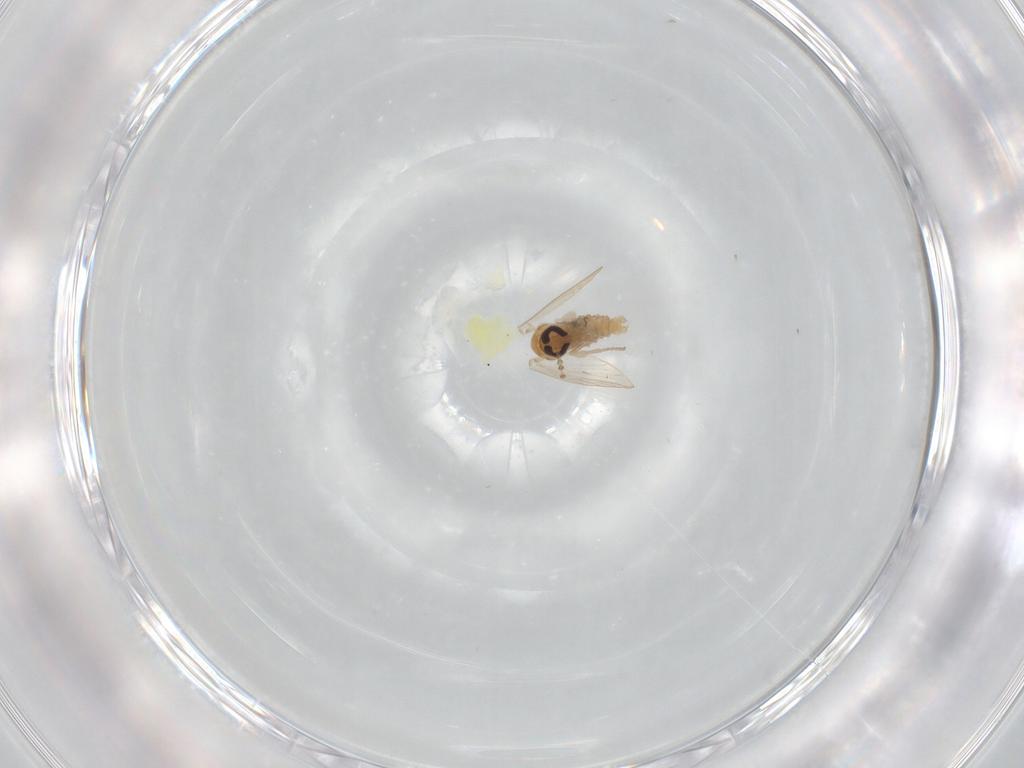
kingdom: Animalia
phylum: Arthropoda
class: Insecta
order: Diptera
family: Psychodidae
